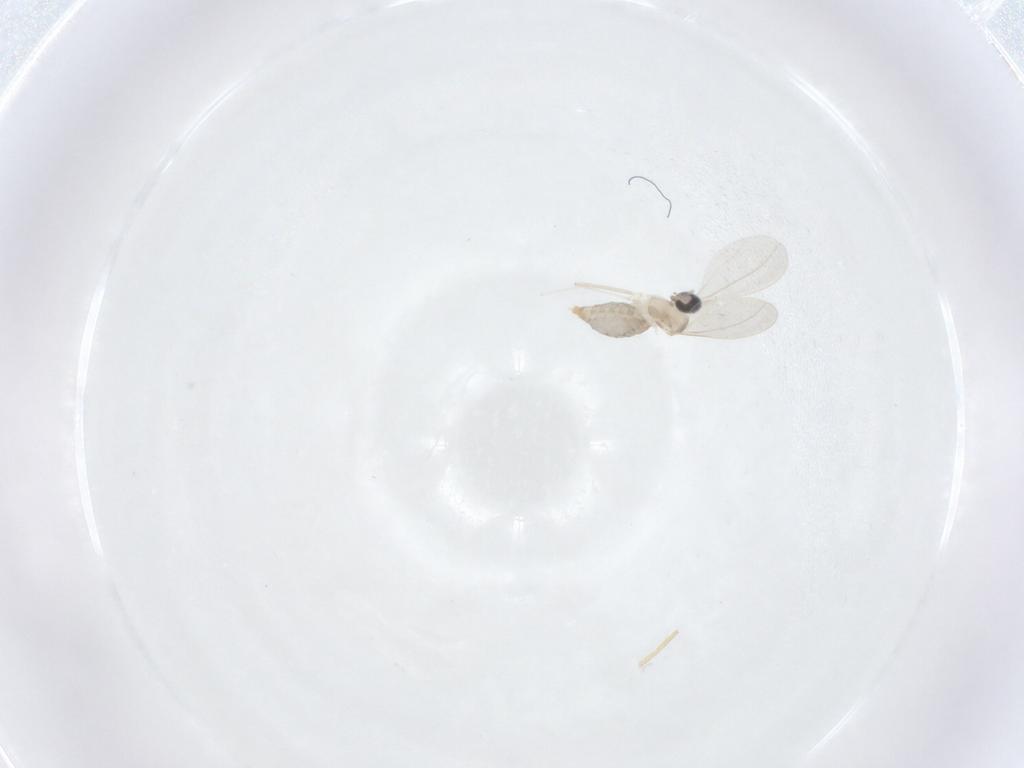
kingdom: Animalia
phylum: Arthropoda
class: Insecta
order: Diptera
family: Cecidomyiidae
